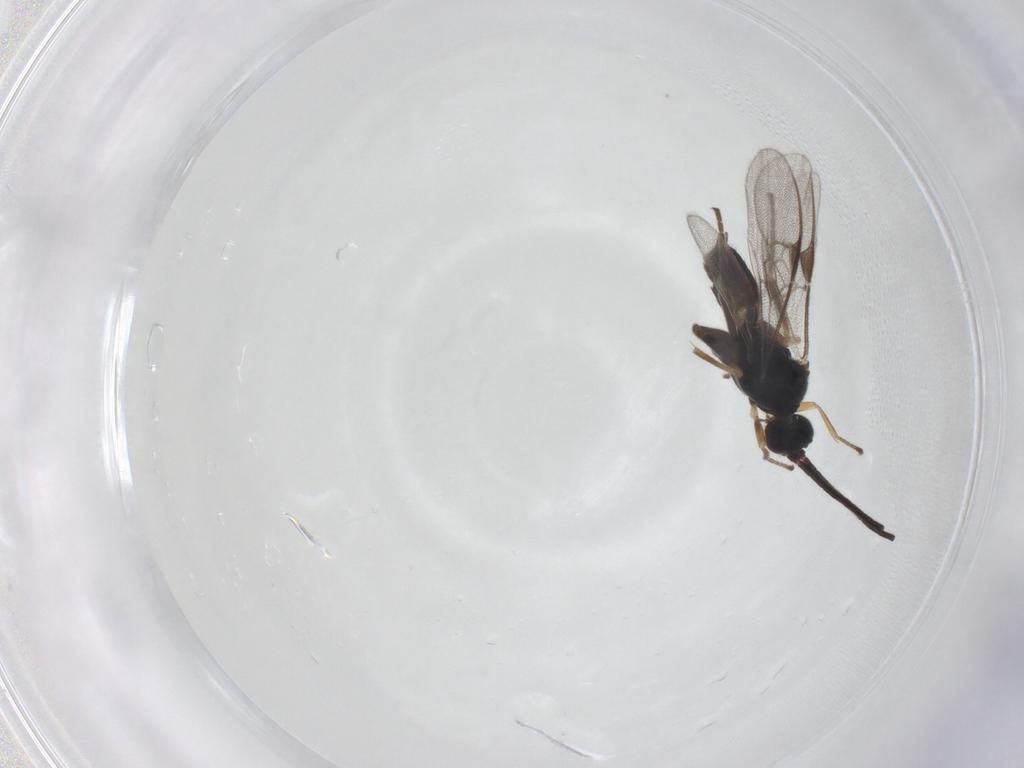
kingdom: Animalia
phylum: Arthropoda
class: Insecta
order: Hymenoptera
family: Braconidae
